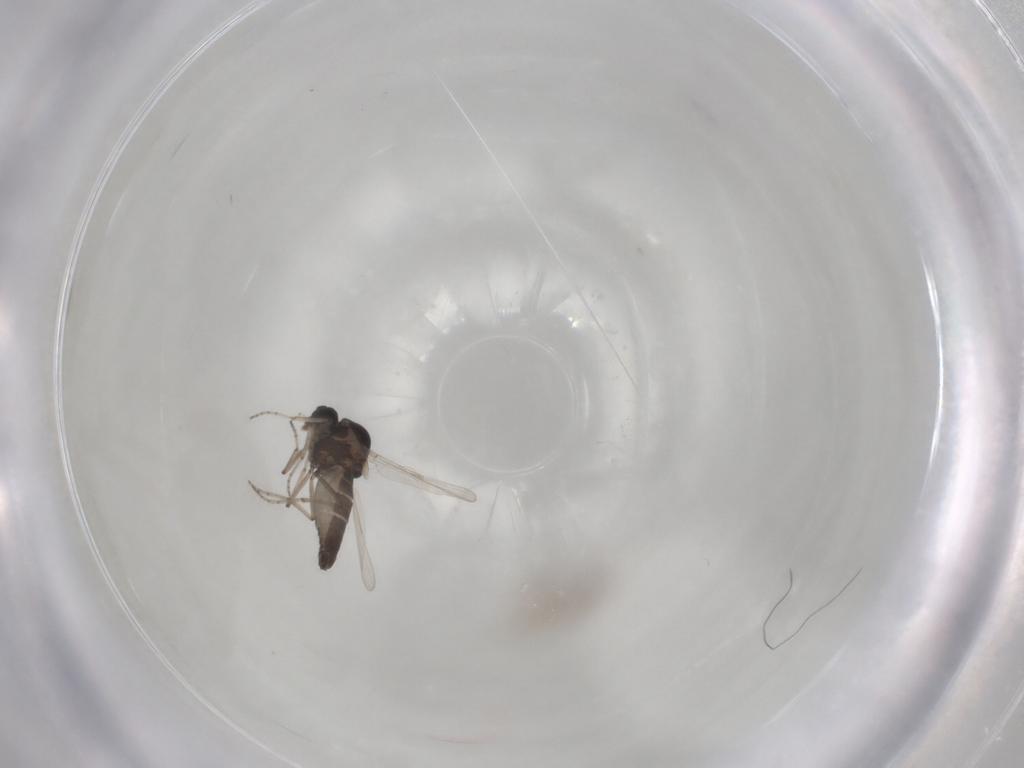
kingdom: Animalia
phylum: Arthropoda
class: Insecta
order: Diptera
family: Ceratopogonidae
